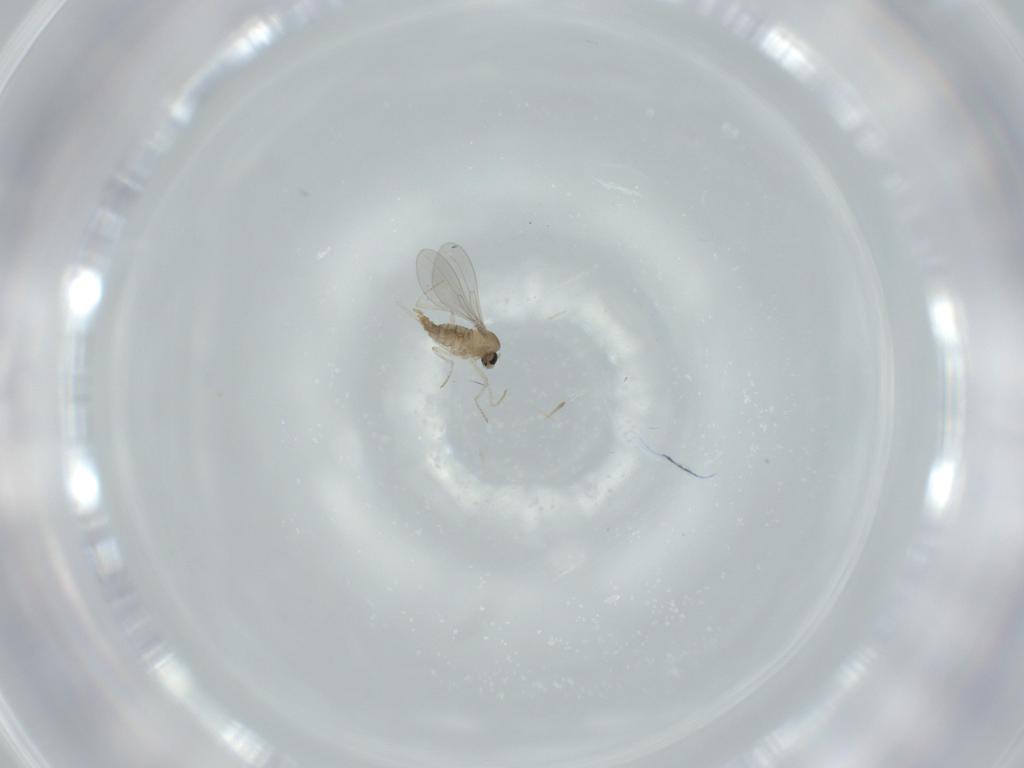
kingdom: Animalia
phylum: Arthropoda
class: Insecta
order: Diptera
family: Cecidomyiidae
